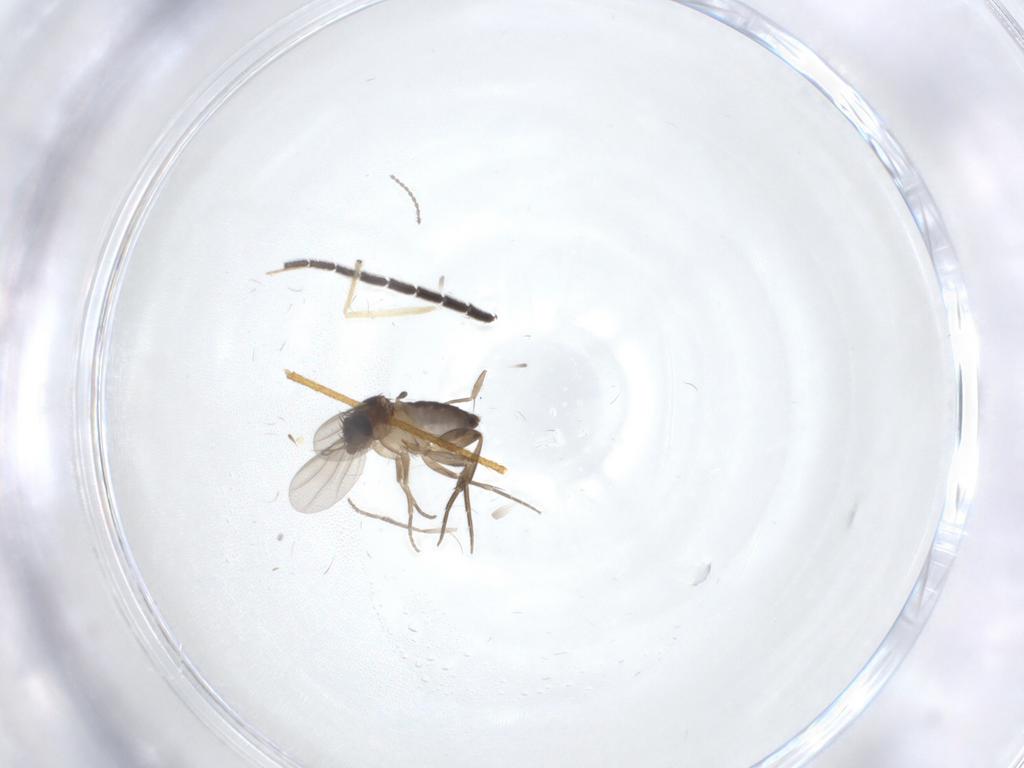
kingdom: Animalia
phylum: Arthropoda
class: Insecta
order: Diptera
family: Phoridae
